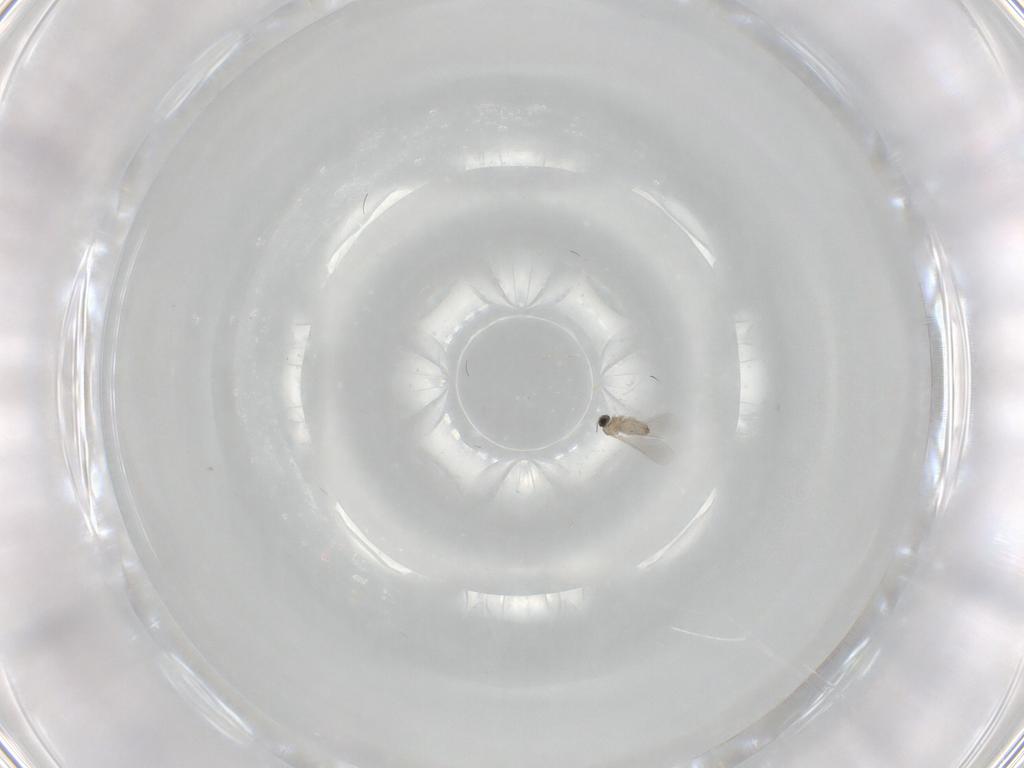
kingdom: Animalia
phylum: Arthropoda
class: Insecta
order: Diptera
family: Cecidomyiidae
